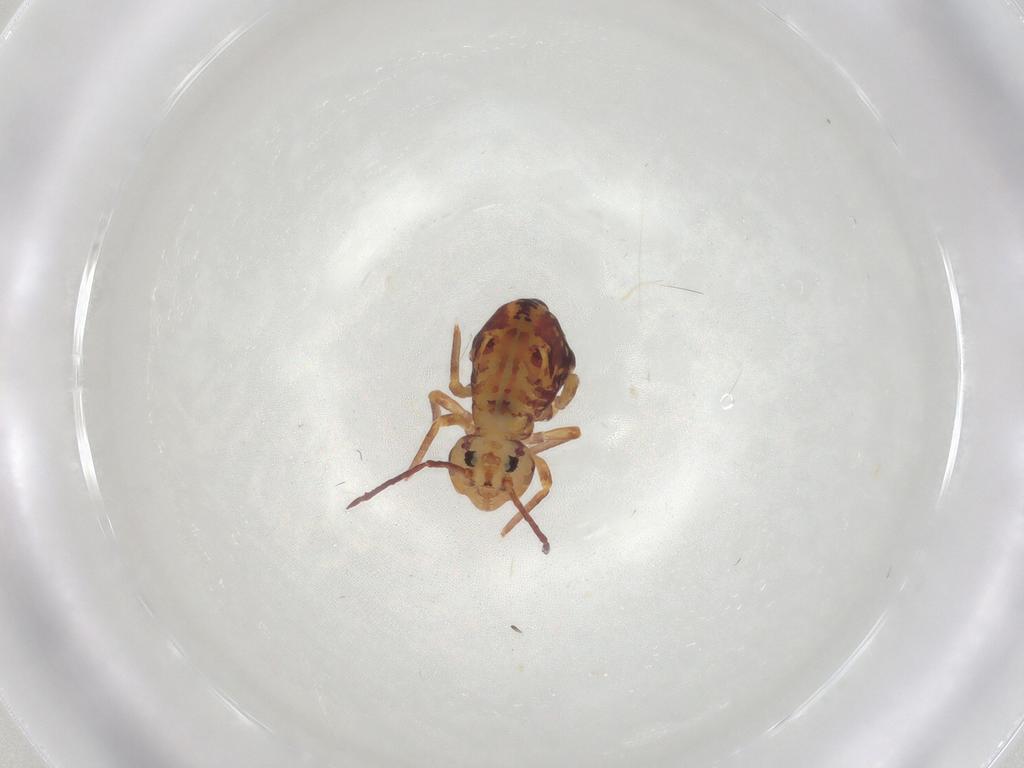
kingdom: Animalia
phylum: Arthropoda
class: Collembola
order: Symphypleona
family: Dicyrtomidae
